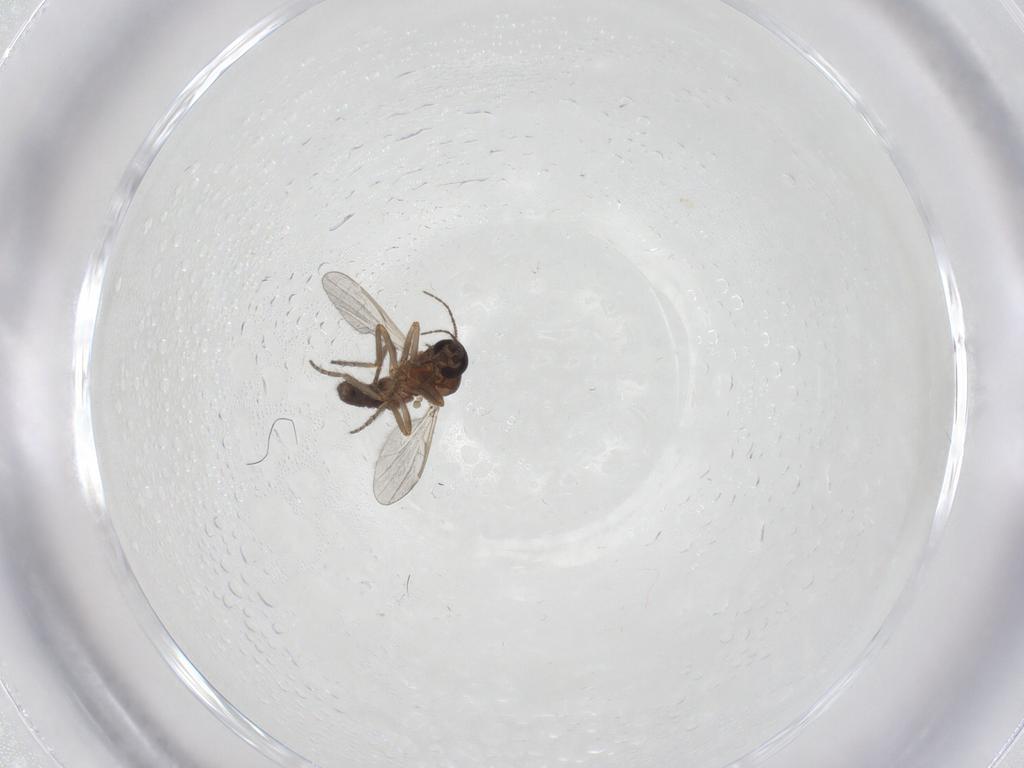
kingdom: Animalia
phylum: Arthropoda
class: Insecta
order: Diptera
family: Ceratopogonidae
